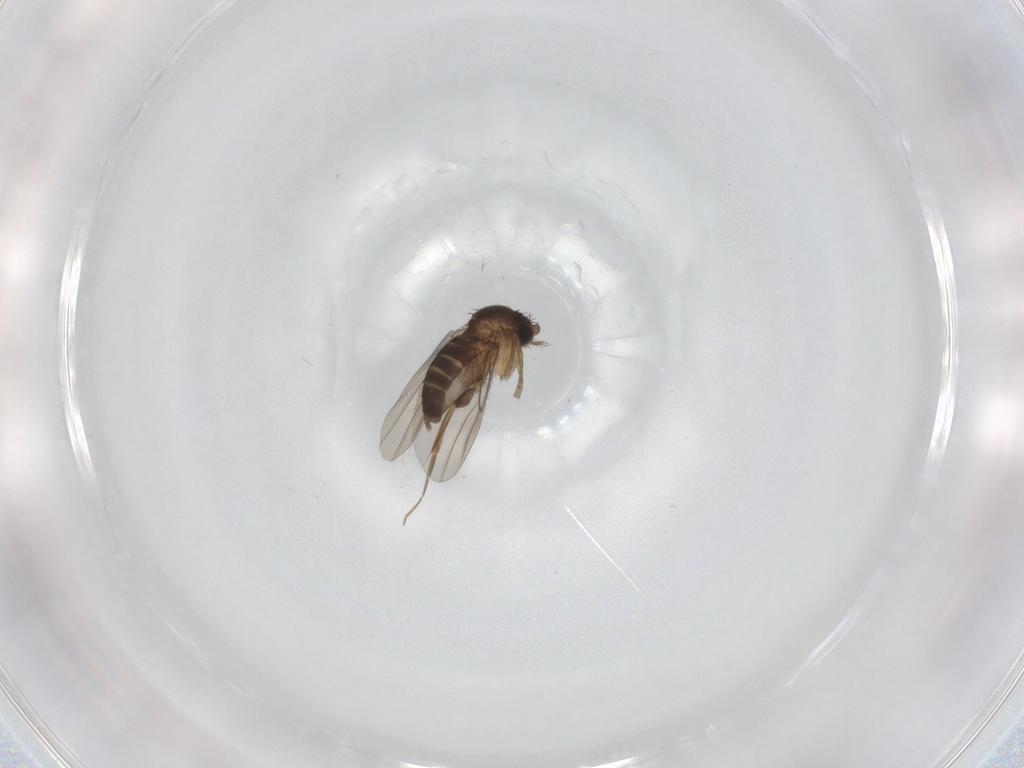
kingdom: Animalia
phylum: Arthropoda
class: Insecta
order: Diptera
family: Phoridae
